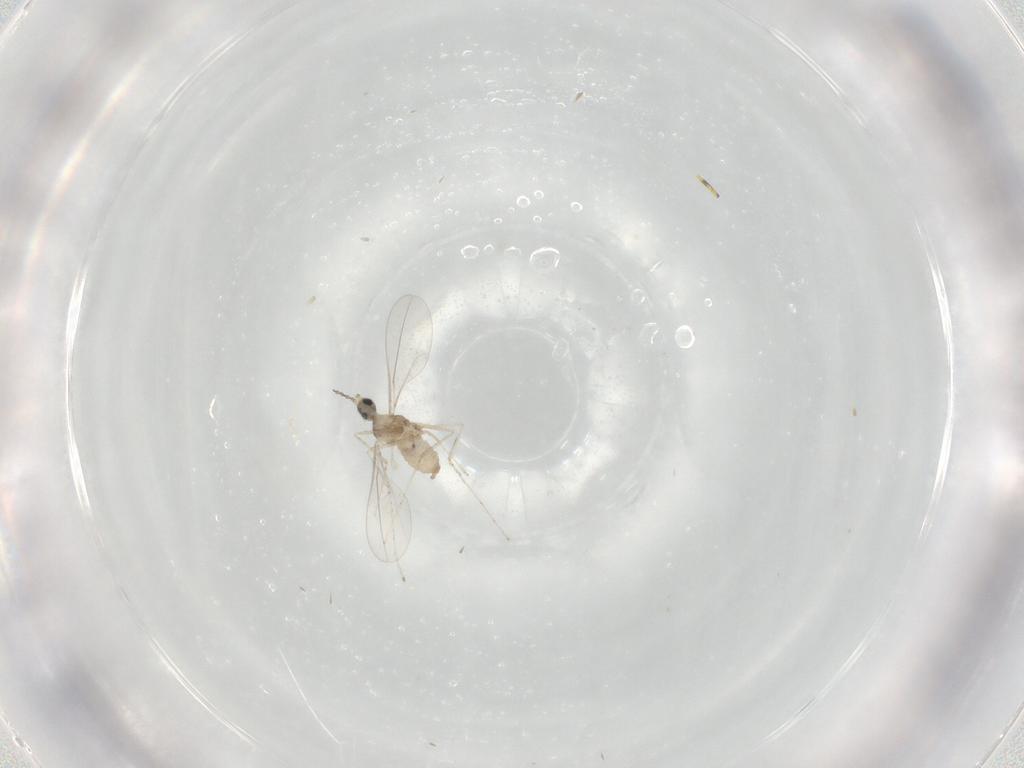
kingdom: Animalia
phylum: Arthropoda
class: Insecta
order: Diptera
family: Cecidomyiidae
